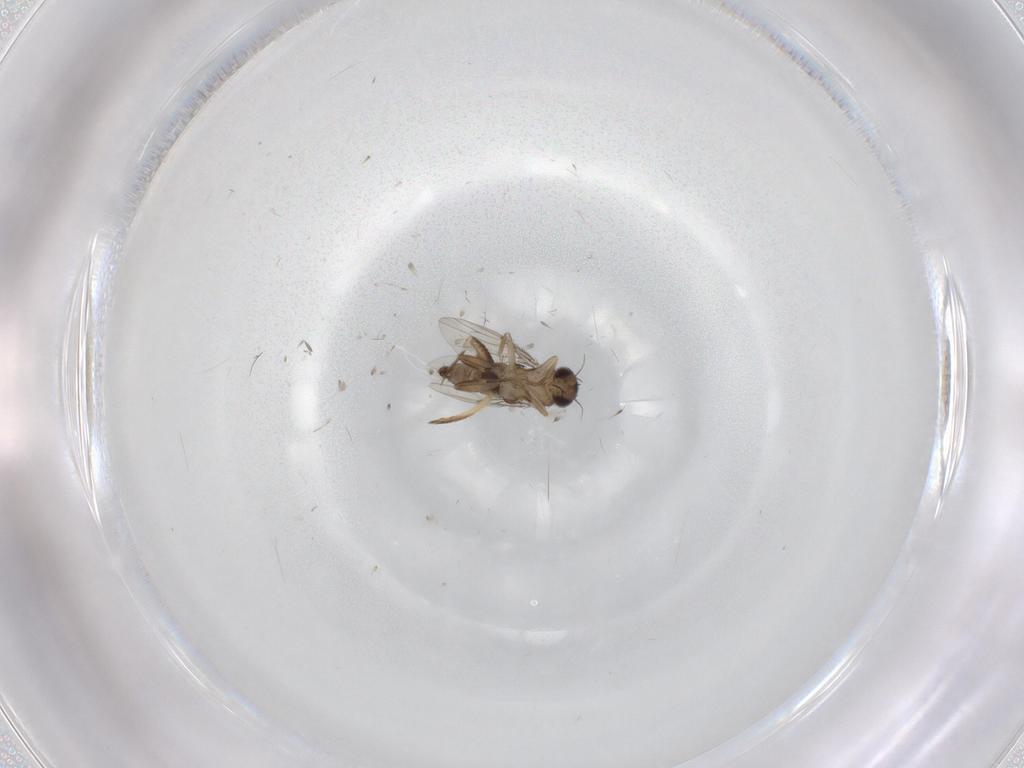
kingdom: Animalia
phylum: Arthropoda
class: Insecta
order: Diptera
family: Phoridae
